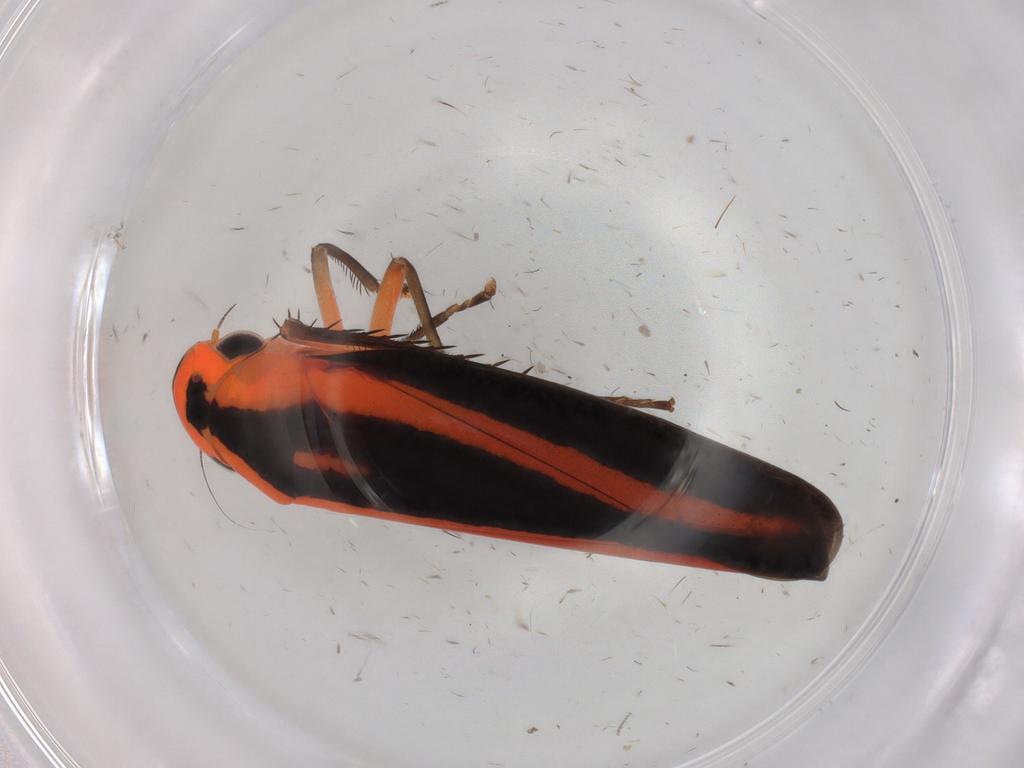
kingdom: Animalia
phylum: Arthropoda
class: Insecta
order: Hemiptera
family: Cicadellidae
